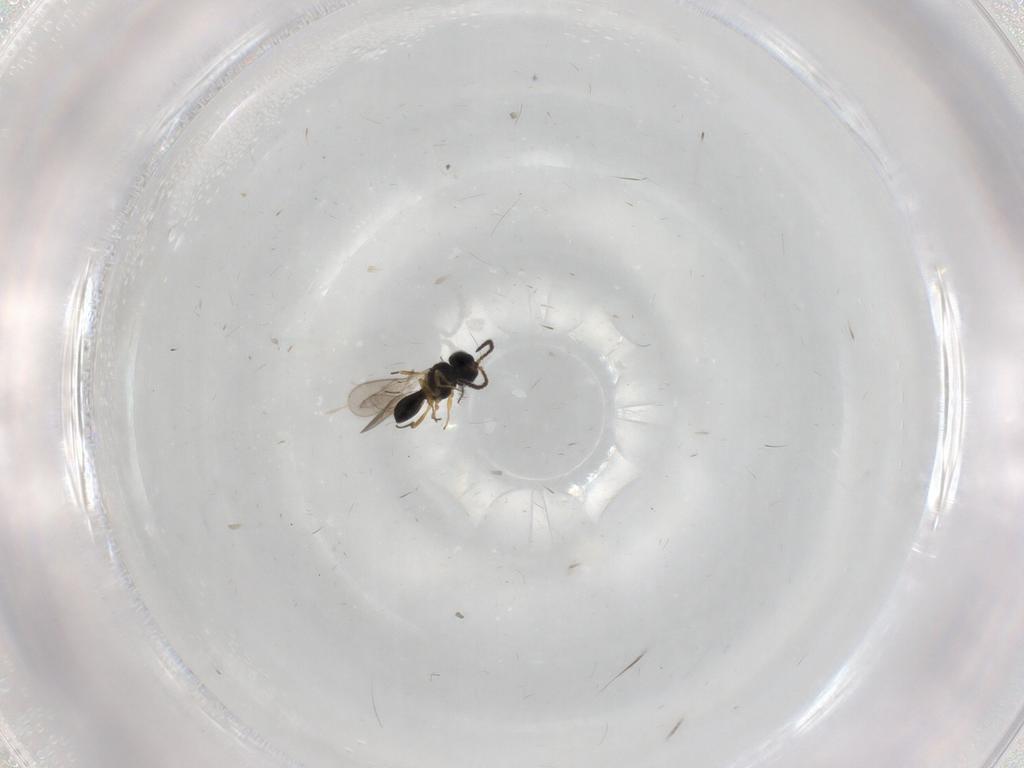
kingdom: Animalia
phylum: Arthropoda
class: Insecta
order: Hymenoptera
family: Scelionidae
